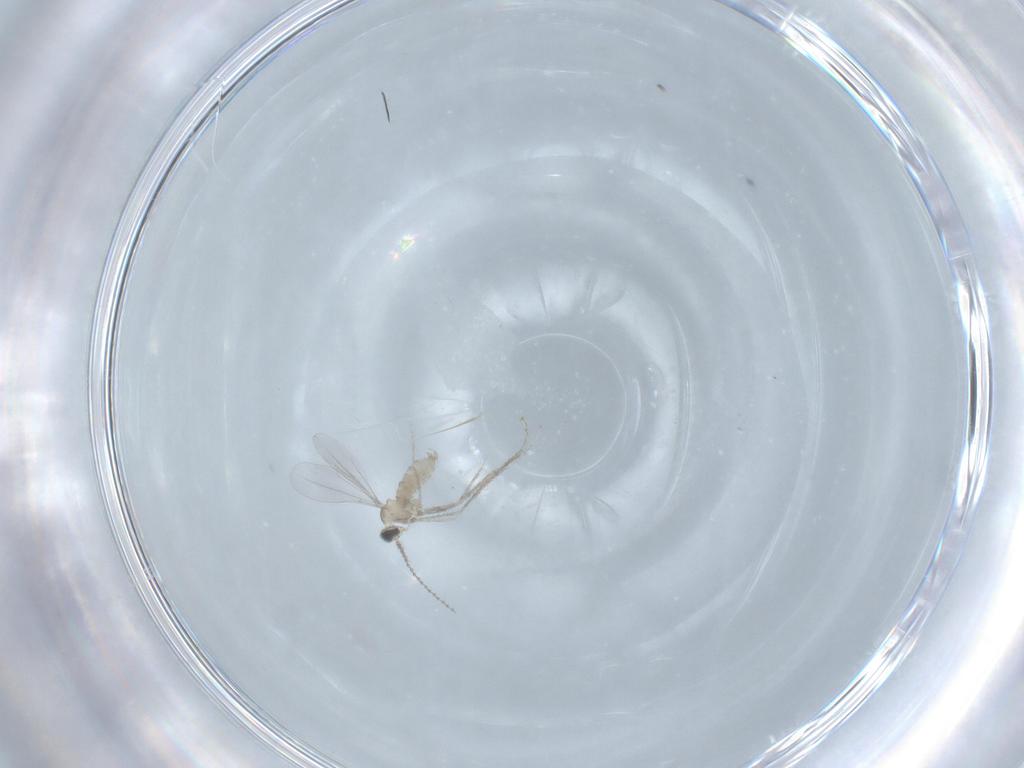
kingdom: Animalia
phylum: Arthropoda
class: Insecta
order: Diptera
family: Cecidomyiidae
